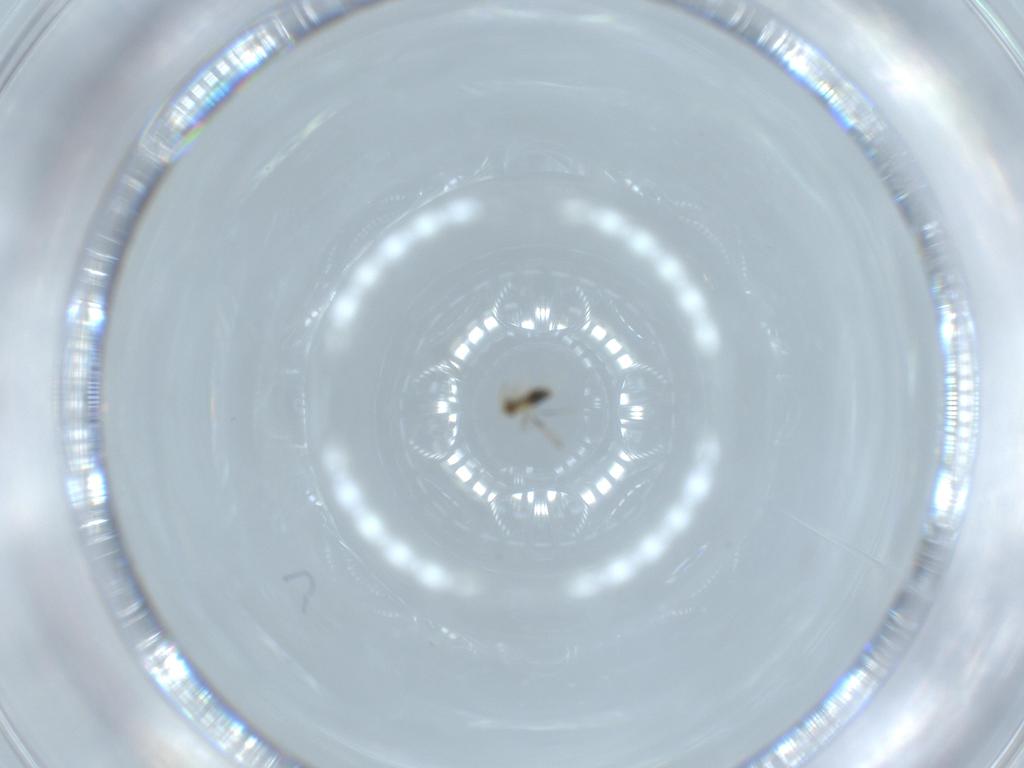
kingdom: Animalia
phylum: Arthropoda
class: Insecta
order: Hymenoptera
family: Aphelinidae
